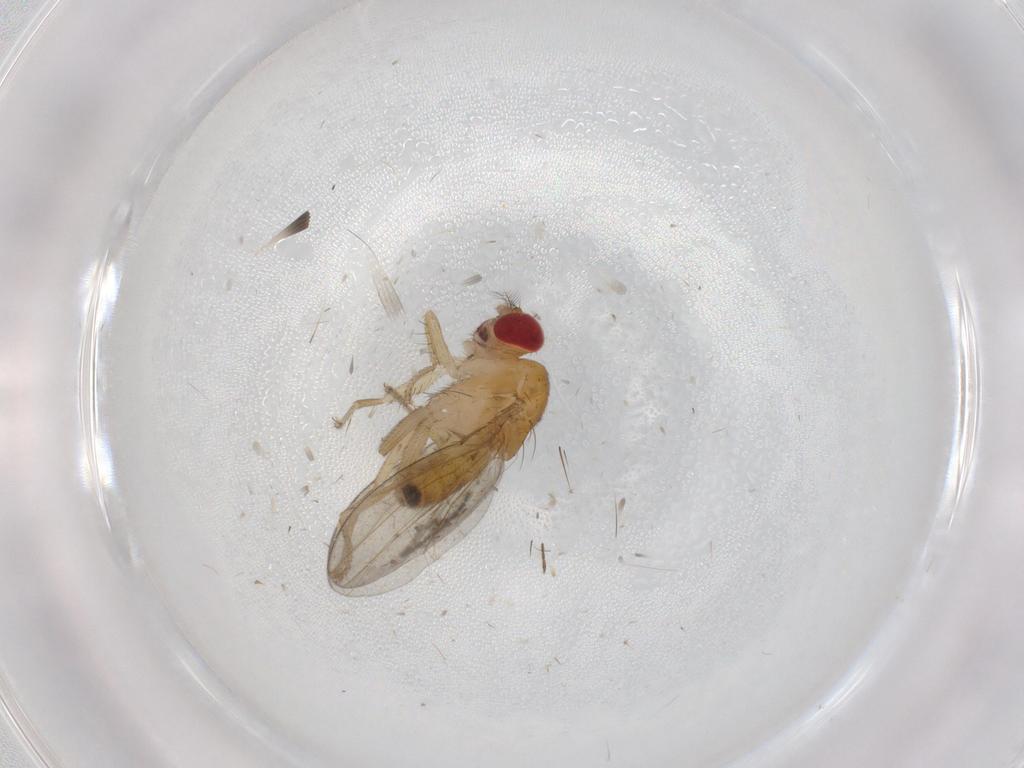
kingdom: Animalia
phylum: Arthropoda
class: Insecta
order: Diptera
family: Drosophilidae
